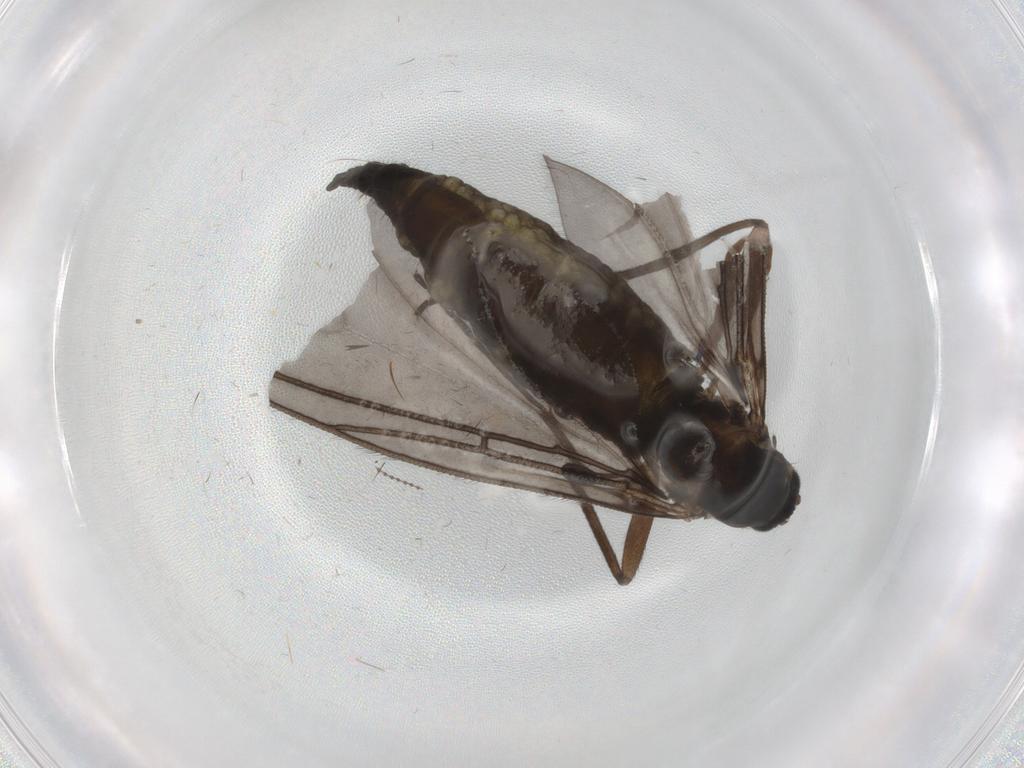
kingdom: Animalia
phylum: Arthropoda
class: Insecta
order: Diptera
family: Sciaridae
